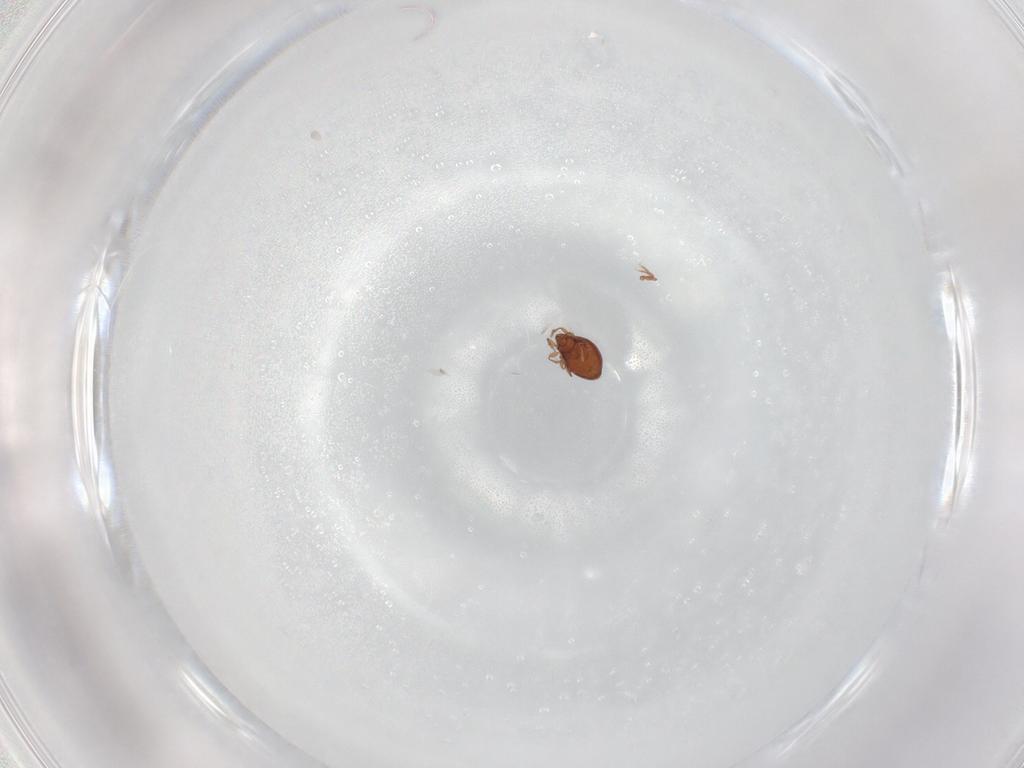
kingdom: Animalia
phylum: Arthropoda
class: Arachnida
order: Sarcoptiformes
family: Oribatulidae
